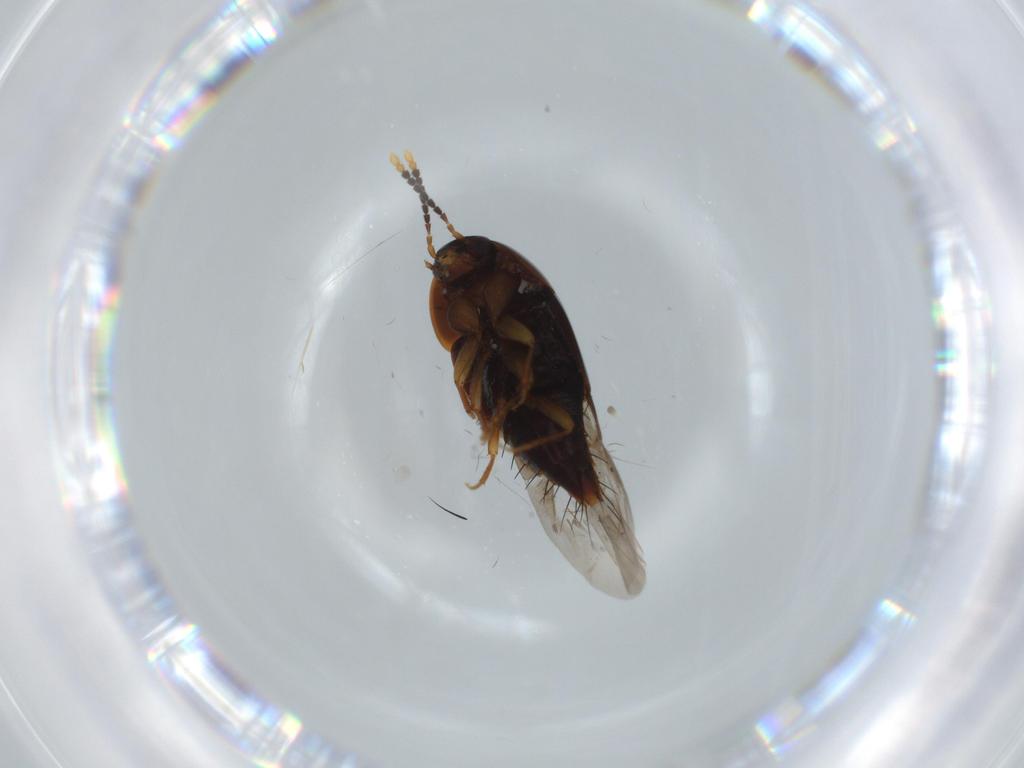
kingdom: Animalia
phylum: Arthropoda
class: Insecta
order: Coleoptera
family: Staphylinidae
